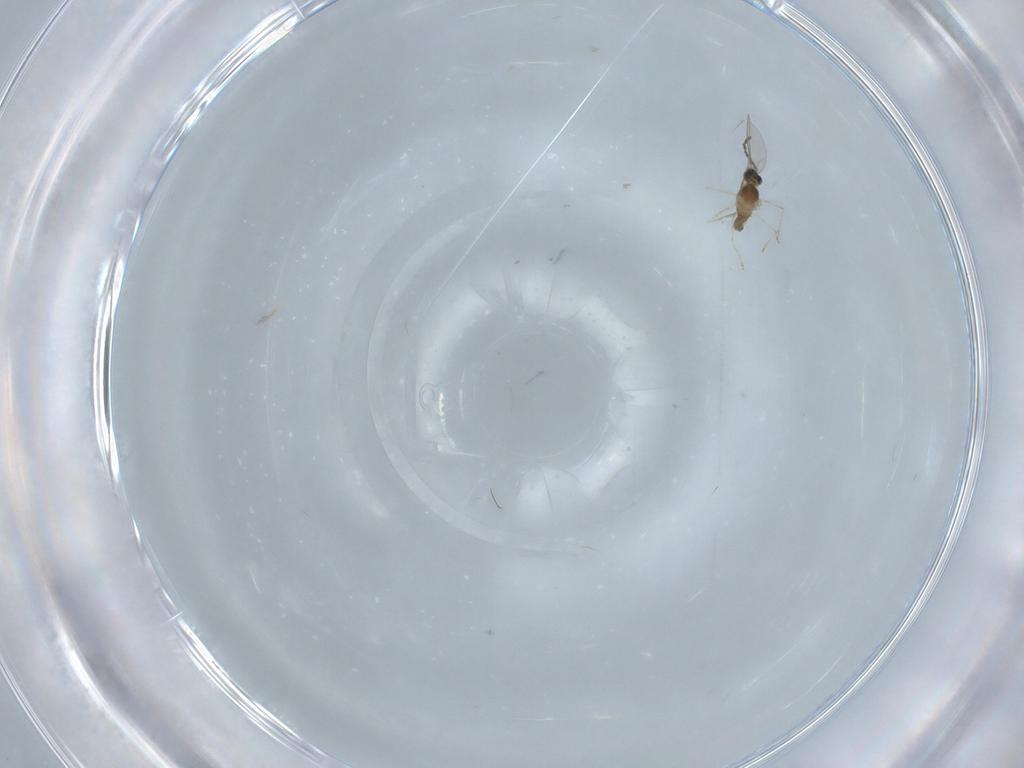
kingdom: Animalia
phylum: Arthropoda
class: Insecta
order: Diptera
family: Cecidomyiidae
